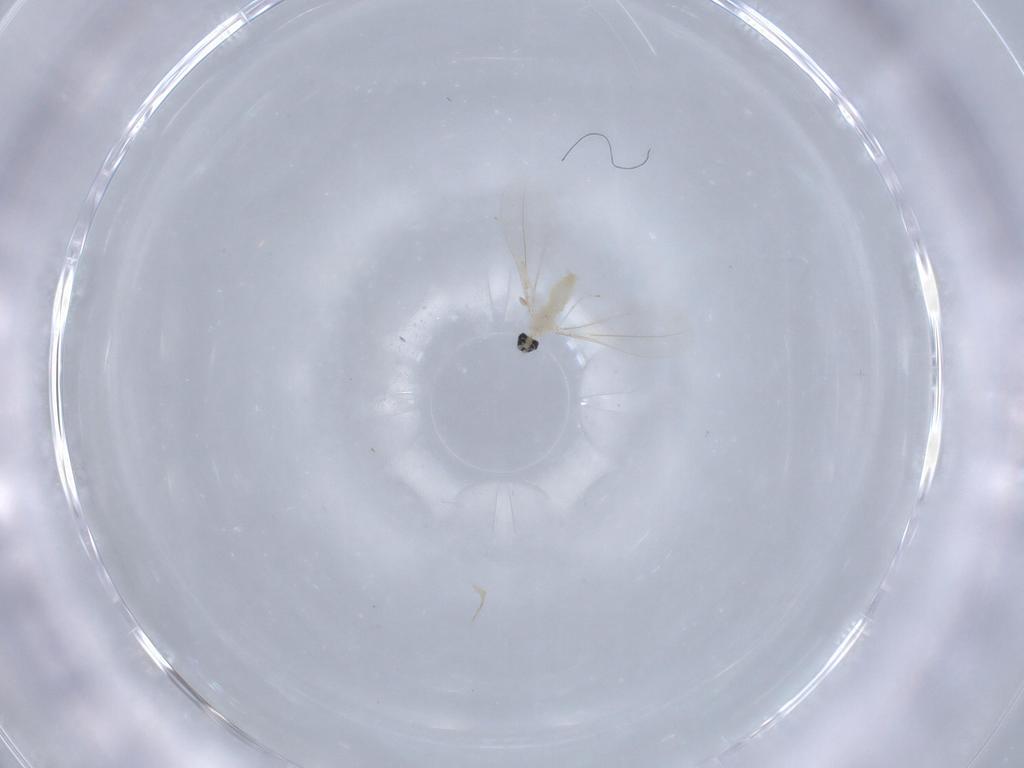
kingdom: Animalia
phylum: Arthropoda
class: Insecta
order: Diptera
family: Cecidomyiidae
